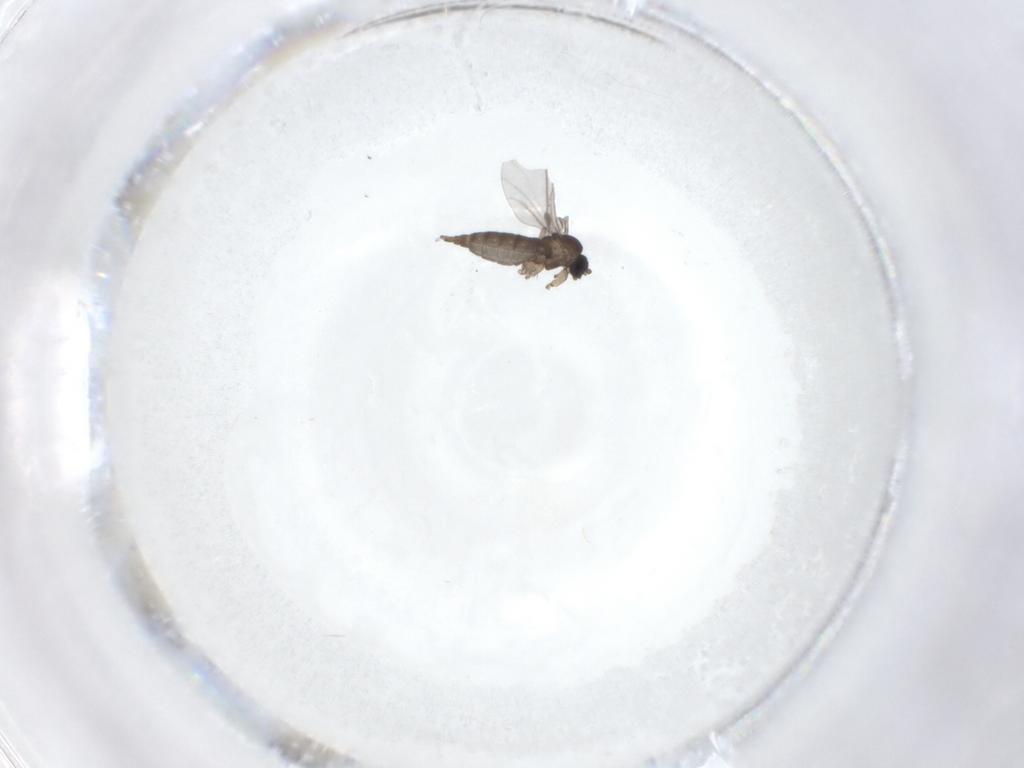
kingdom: Animalia
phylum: Arthropoda
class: Insecta
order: Diptera
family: Sciaridae
